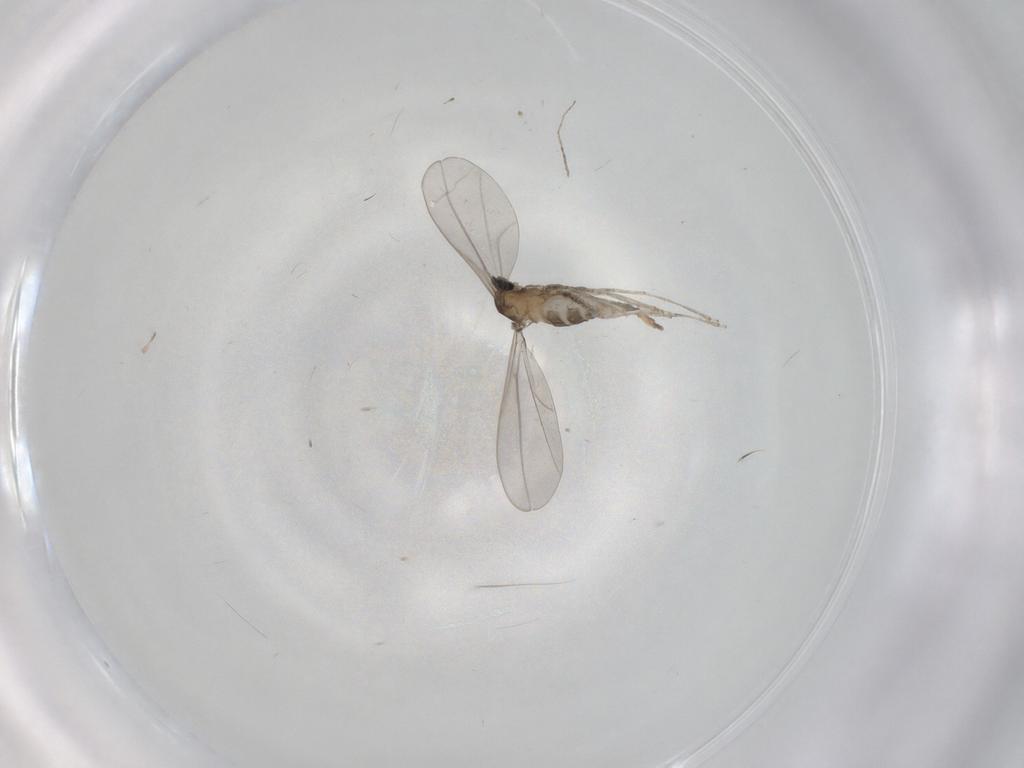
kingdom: Animalia
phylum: Arthropoda
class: Insecta
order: Diptera
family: Cecidomyiidae
